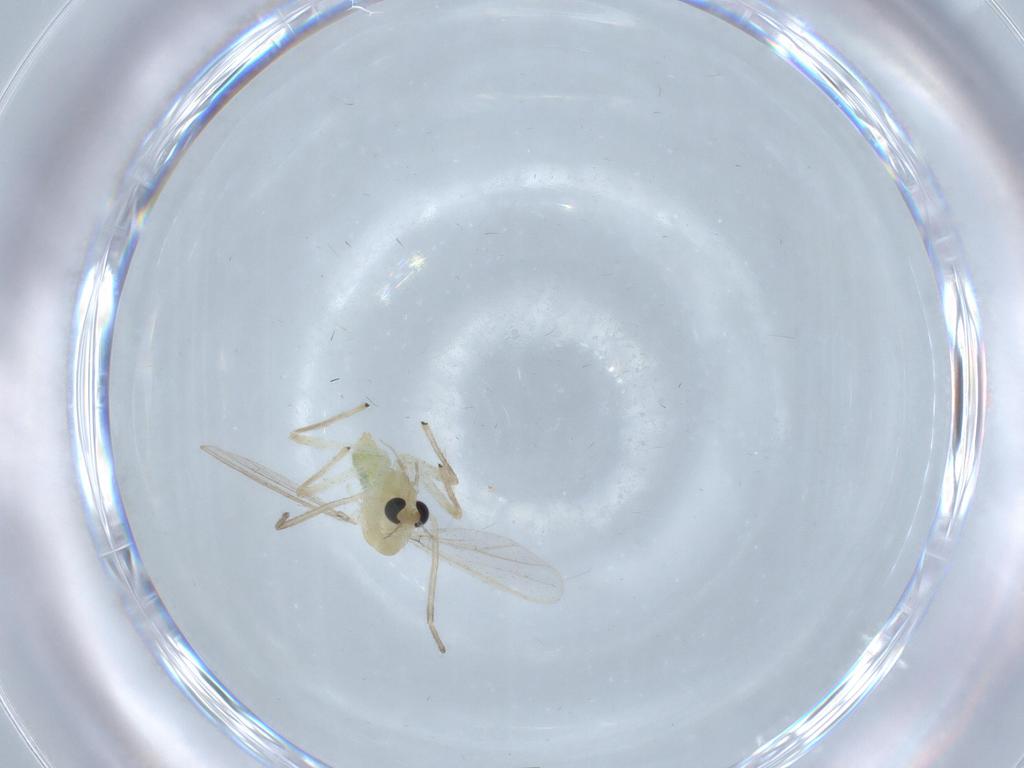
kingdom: Animalia
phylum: Arthropoda
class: Insecta
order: Diptera
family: Chironomidae
